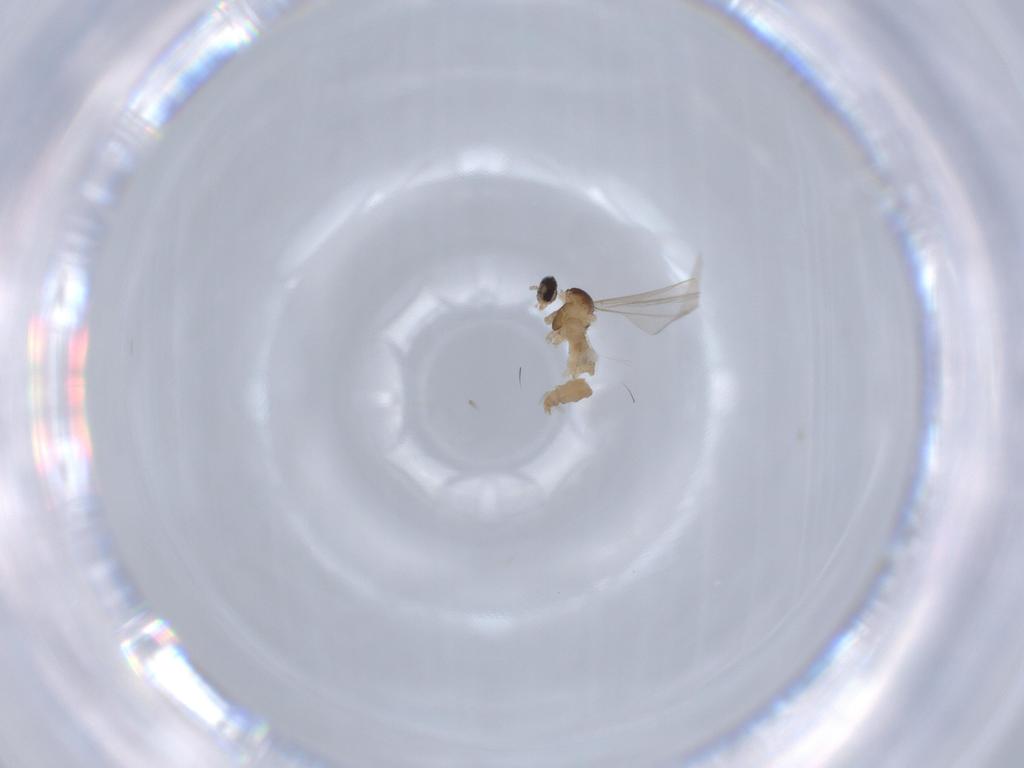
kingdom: Animalia
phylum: Arthropoda
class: Insecta
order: Diptera
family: Cecidomyiidae
